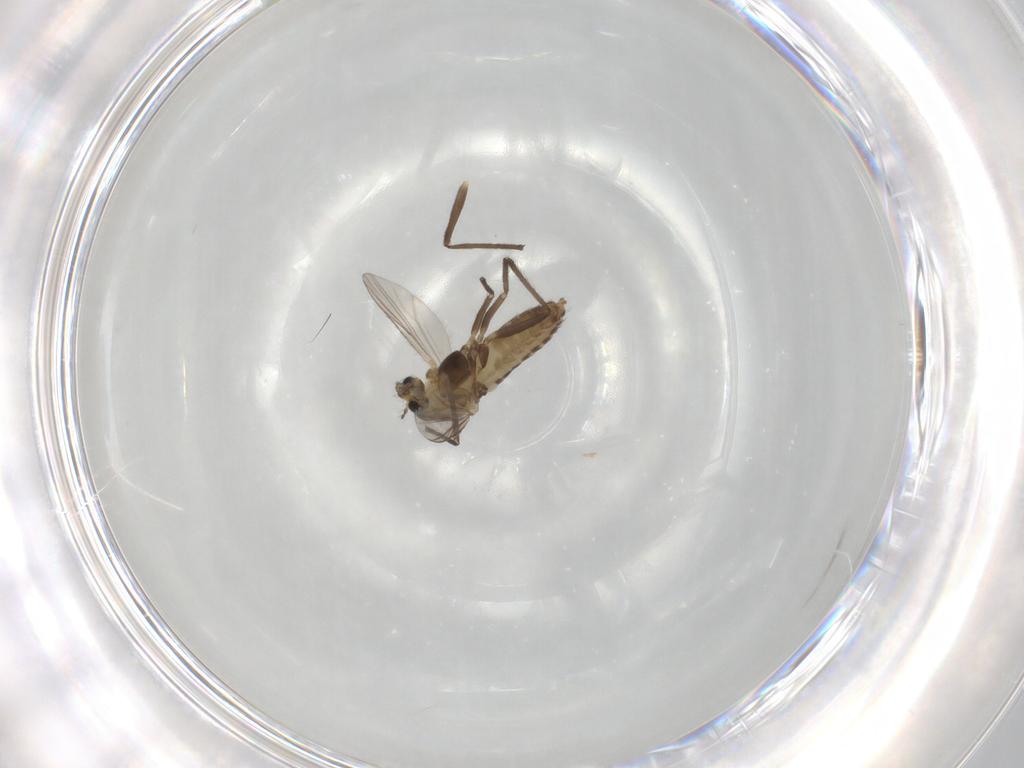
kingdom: Animalia
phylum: Arthropoda
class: Insecta
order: Diptera
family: Chironomidae
